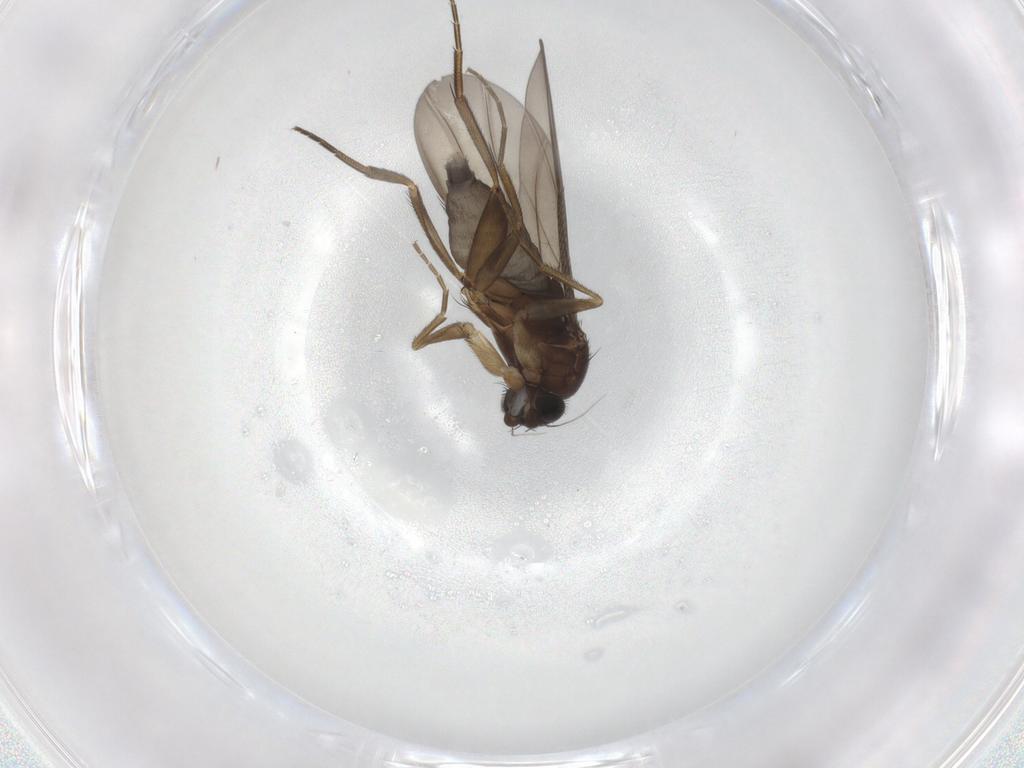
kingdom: Animalia
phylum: Arthropoda
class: Insecta
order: Diptera
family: Phoridae
